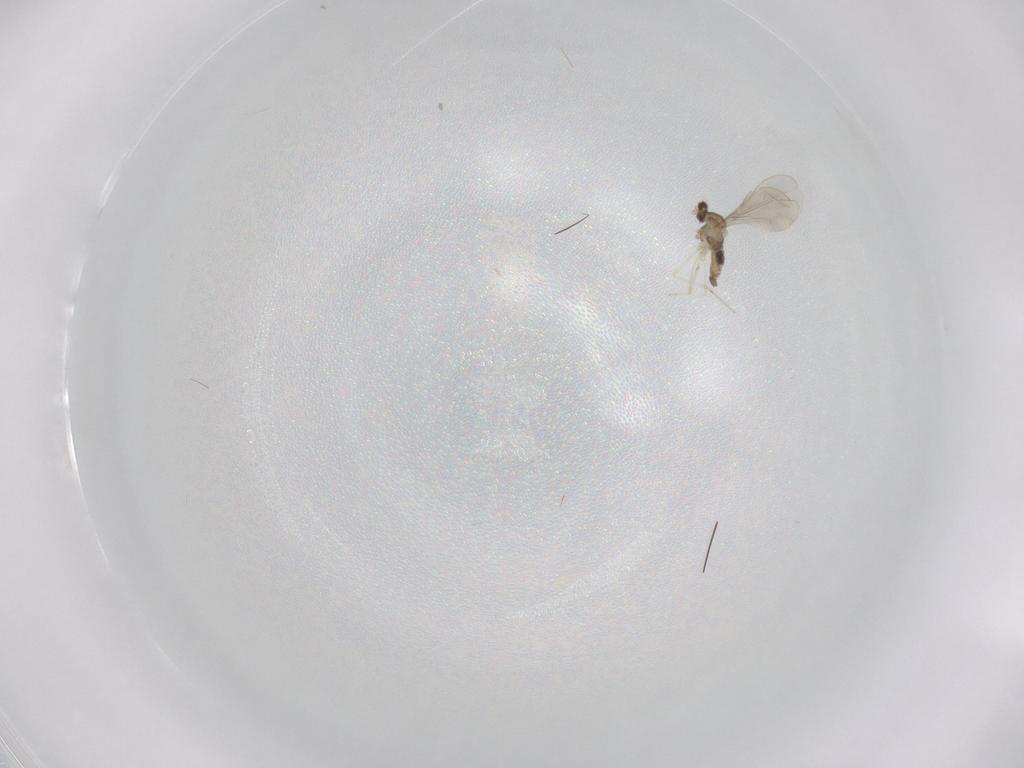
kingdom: Animalia
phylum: Arthropoda
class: Insecta
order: Diptera
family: Cecidomyiidae
